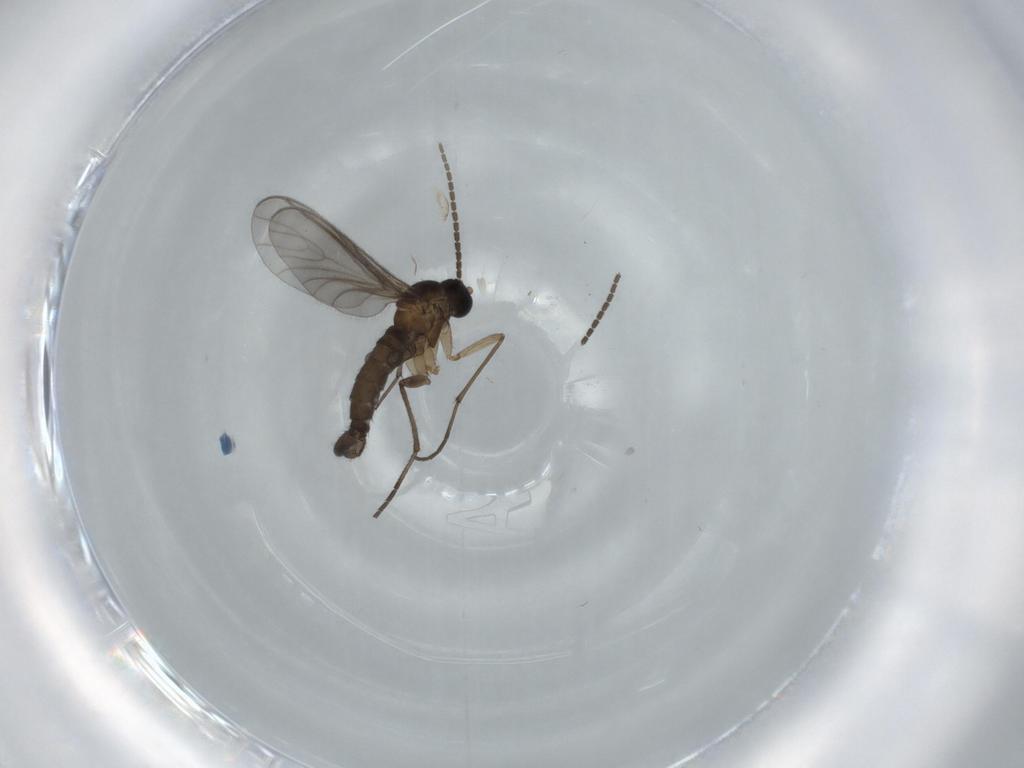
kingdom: Animalia
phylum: Arthropoda
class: Insecta
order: Diptera
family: Sciaridae
